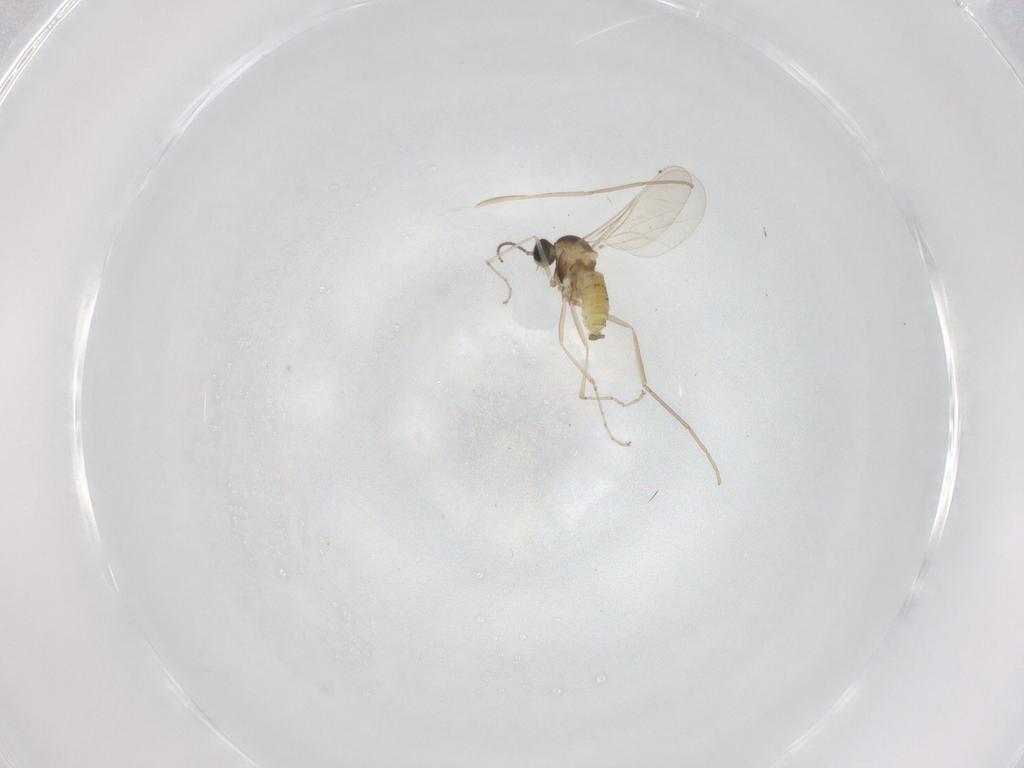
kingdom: Animalia
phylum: Arthropoda
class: Insecta
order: Diptera
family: Cecidomyiidae
